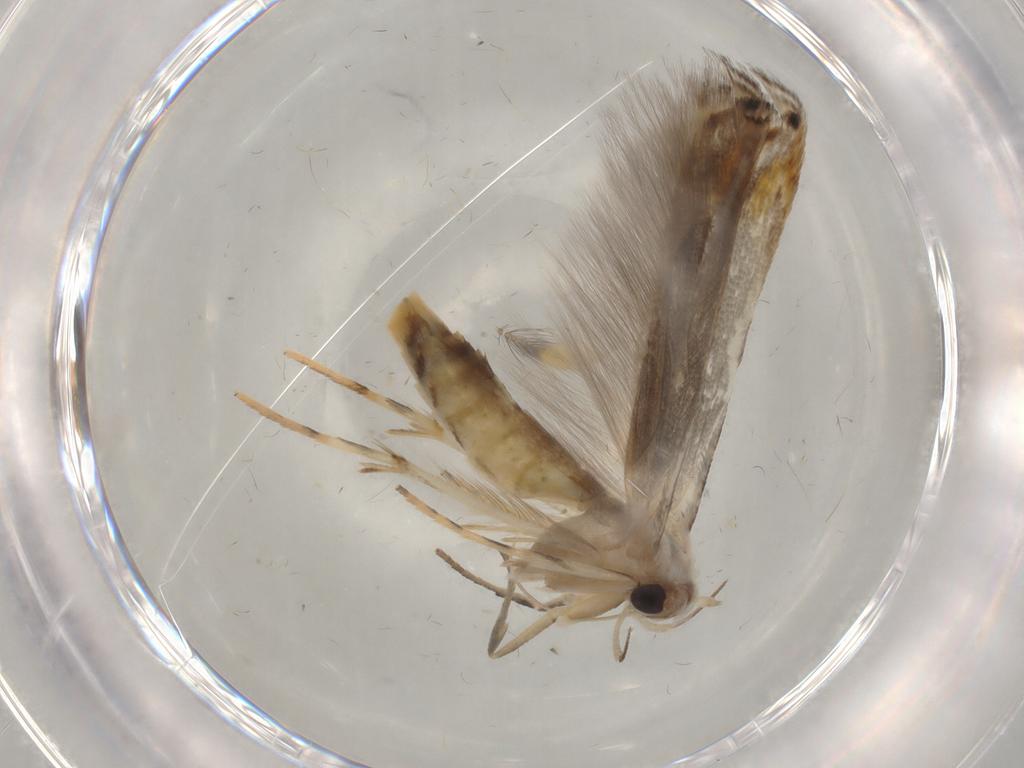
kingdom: Animalia
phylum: Arthropoda
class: Insecta
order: Lepidoptera
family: Gelechiidae
